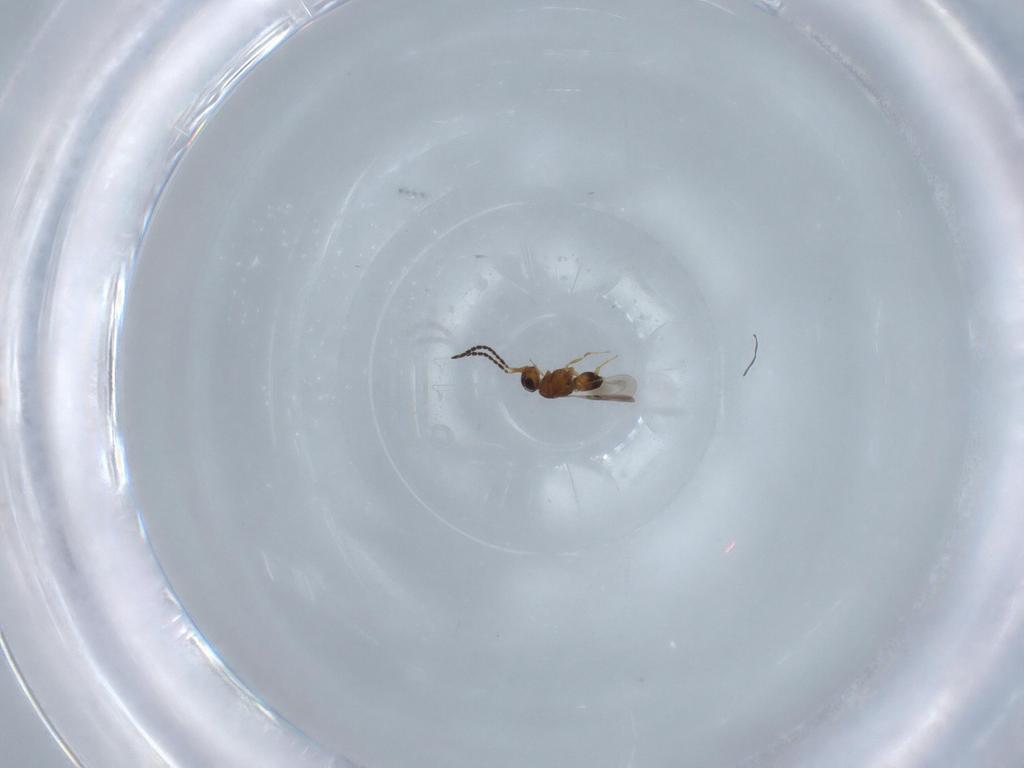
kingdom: Animalia
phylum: Arthropoda
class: Insecta
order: Hymenoptera
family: Ceraphronidae
